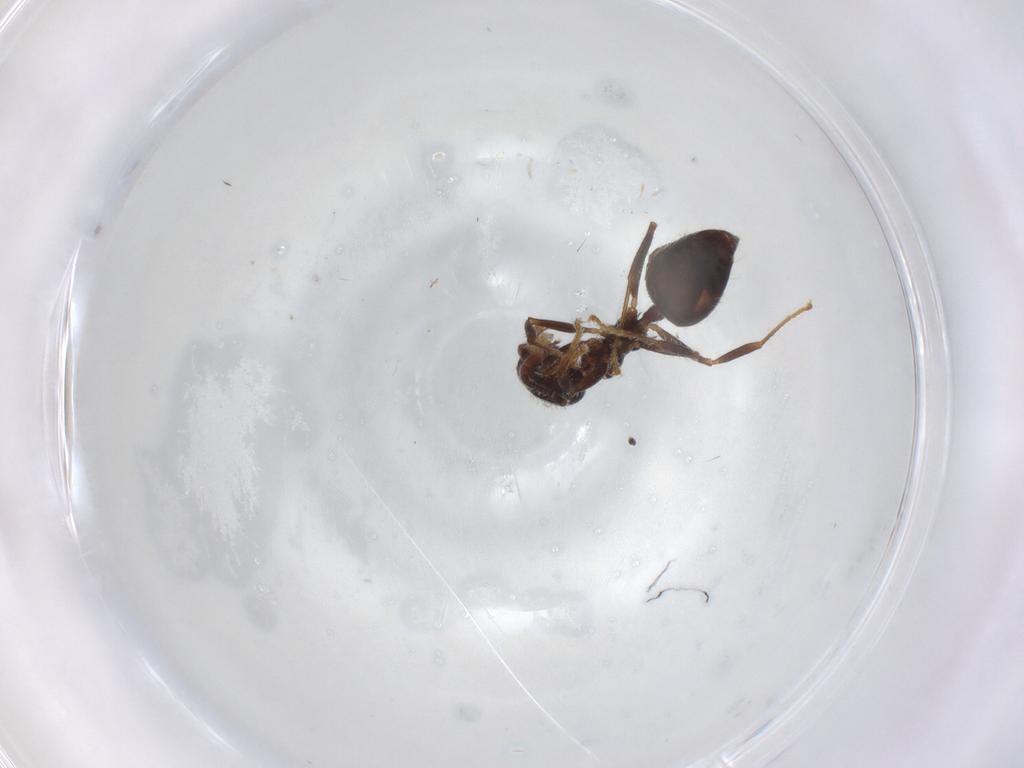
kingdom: Animalia
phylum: Arthropoda
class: Insecta
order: Hymenoptera
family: Formicidae
